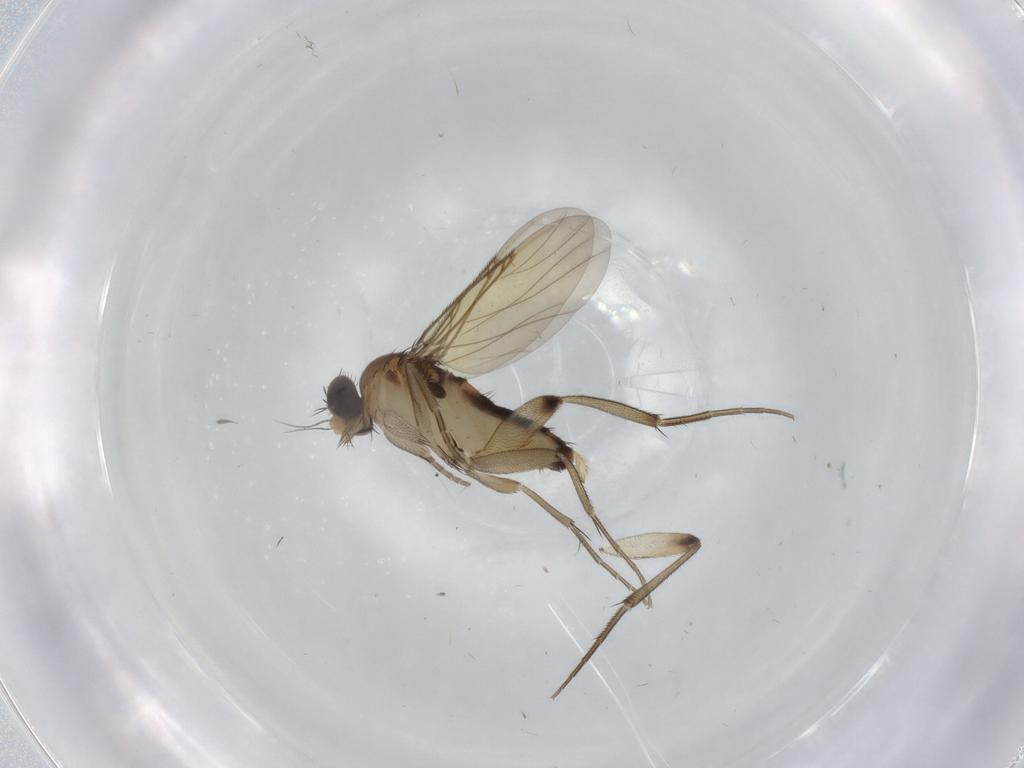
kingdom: Animalia
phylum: Arthropoda
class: Insecta
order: Diptera
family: Phoridae
